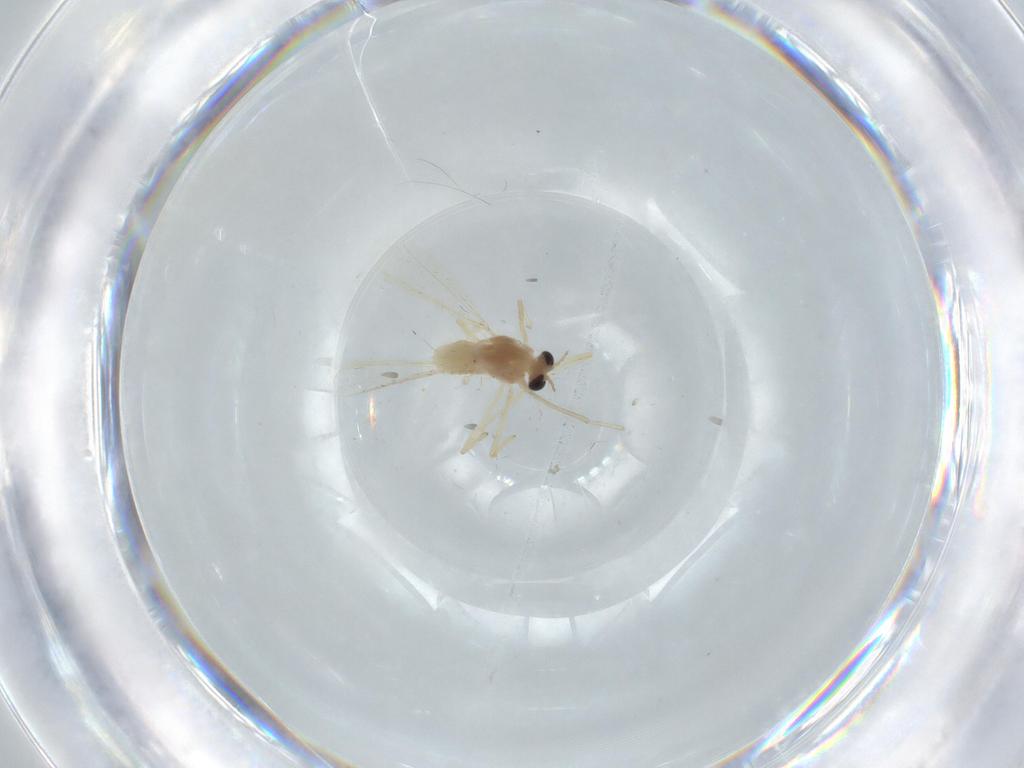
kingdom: Animalia
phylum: Arthropoda
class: Insecta
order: Diptera
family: Chironomidae
